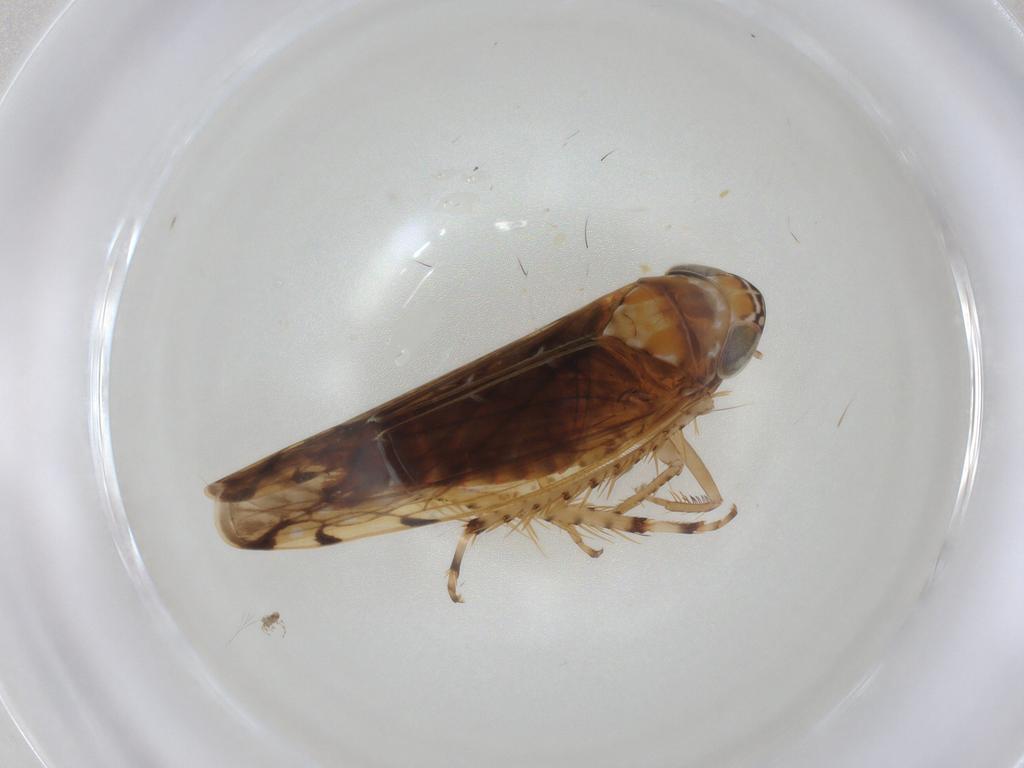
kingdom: Animalia
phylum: Arthropoda
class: Insecta
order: Hemiptera
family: Cicadellidae
